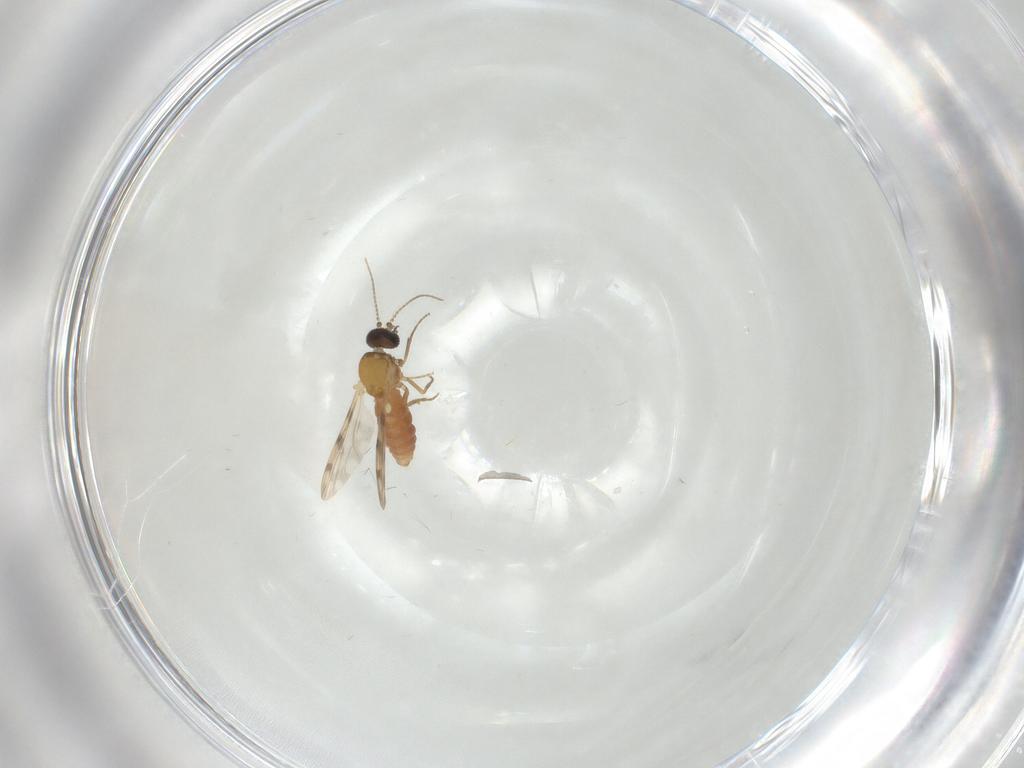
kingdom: Animalia
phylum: Arthropoda
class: Insecta
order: Diptera
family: Ceratopogonidae
